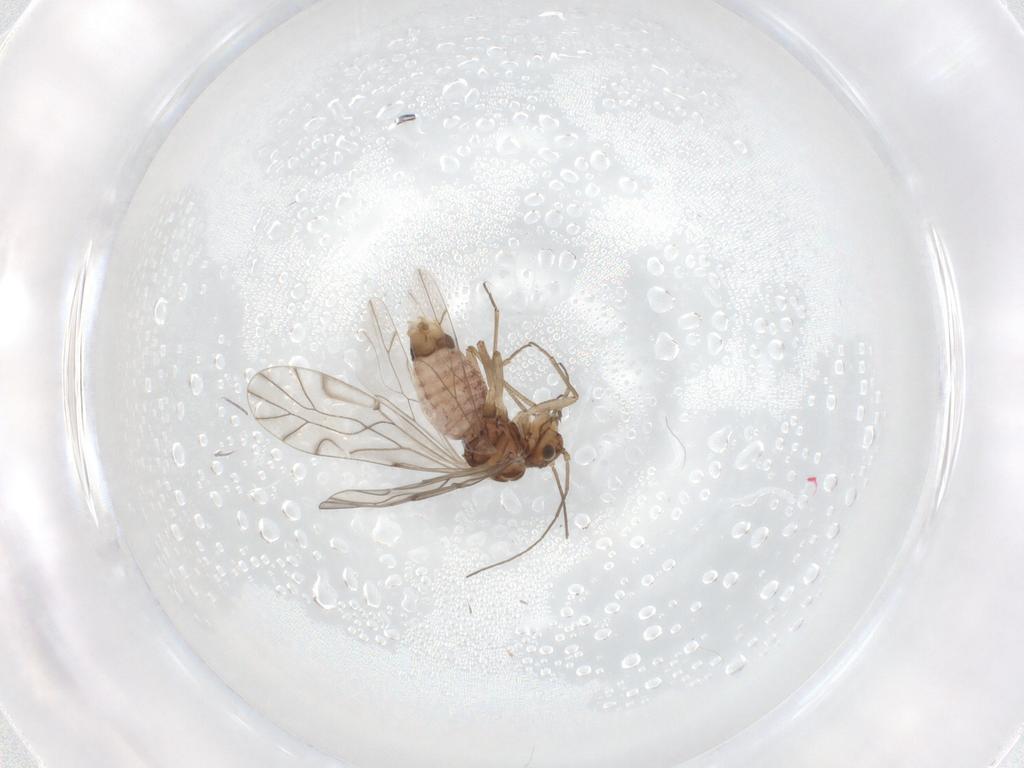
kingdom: Animalia
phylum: Arthropoda
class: Insecta
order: Psocodea
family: Lachesillidae
